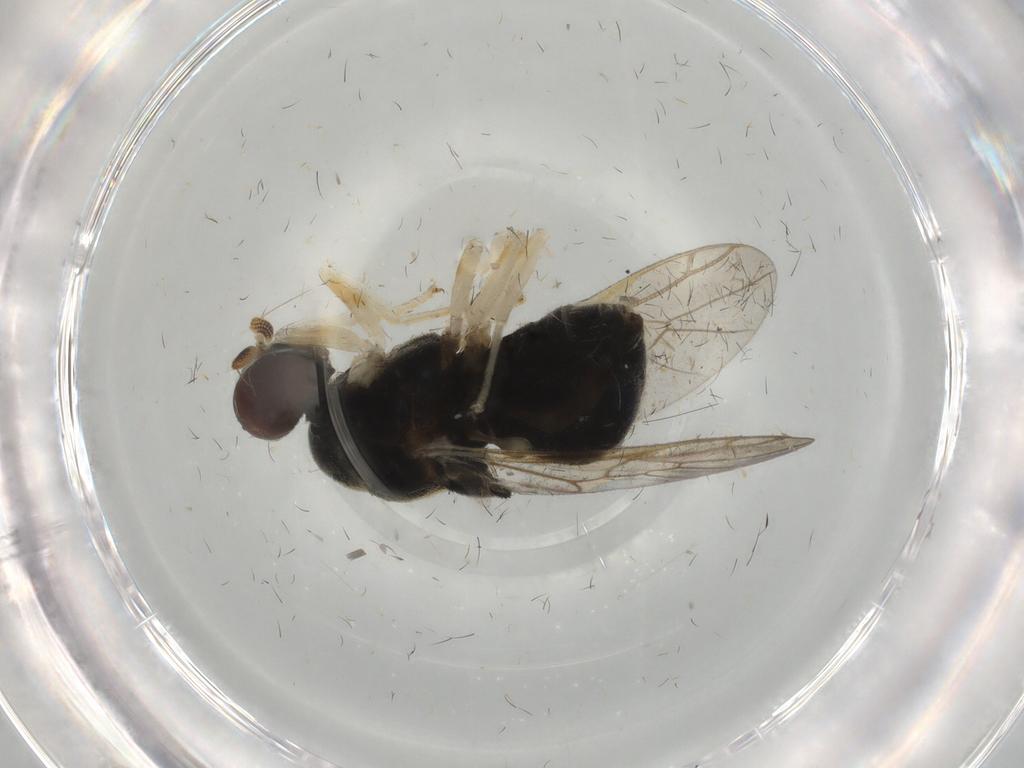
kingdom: Animalia
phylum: Arthropoda
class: Insecta
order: Diptera
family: Stratiomyidae
